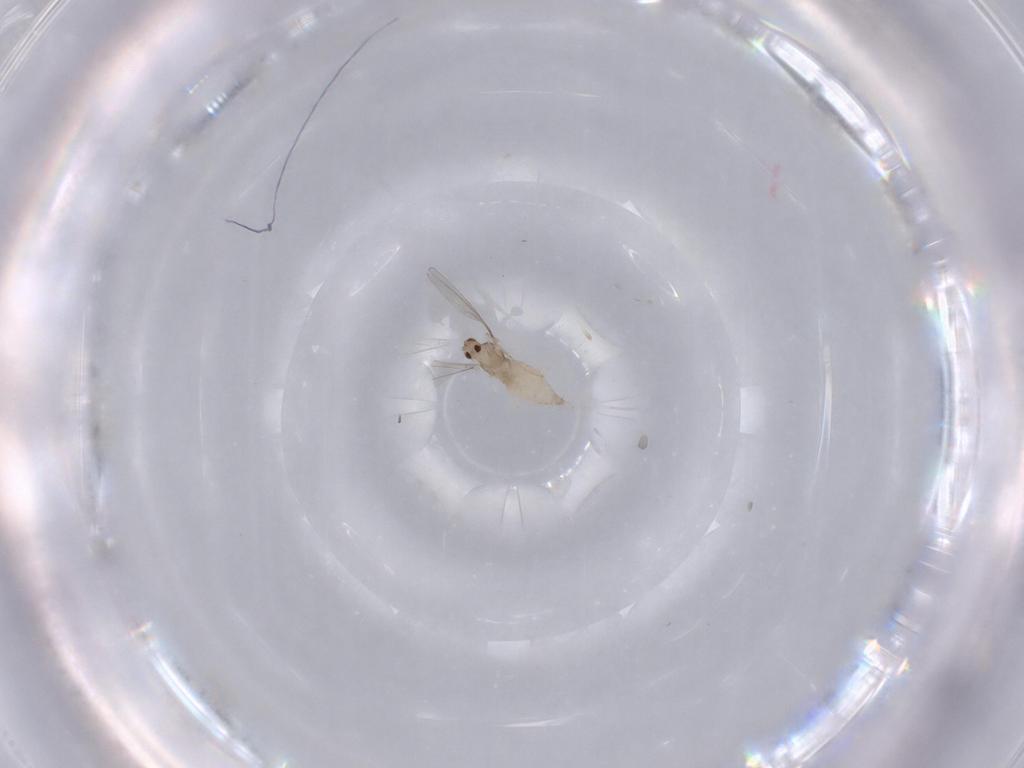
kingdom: Animalia
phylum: Arthropoda
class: Insecta
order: Diptera
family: Cecidomyiidae
